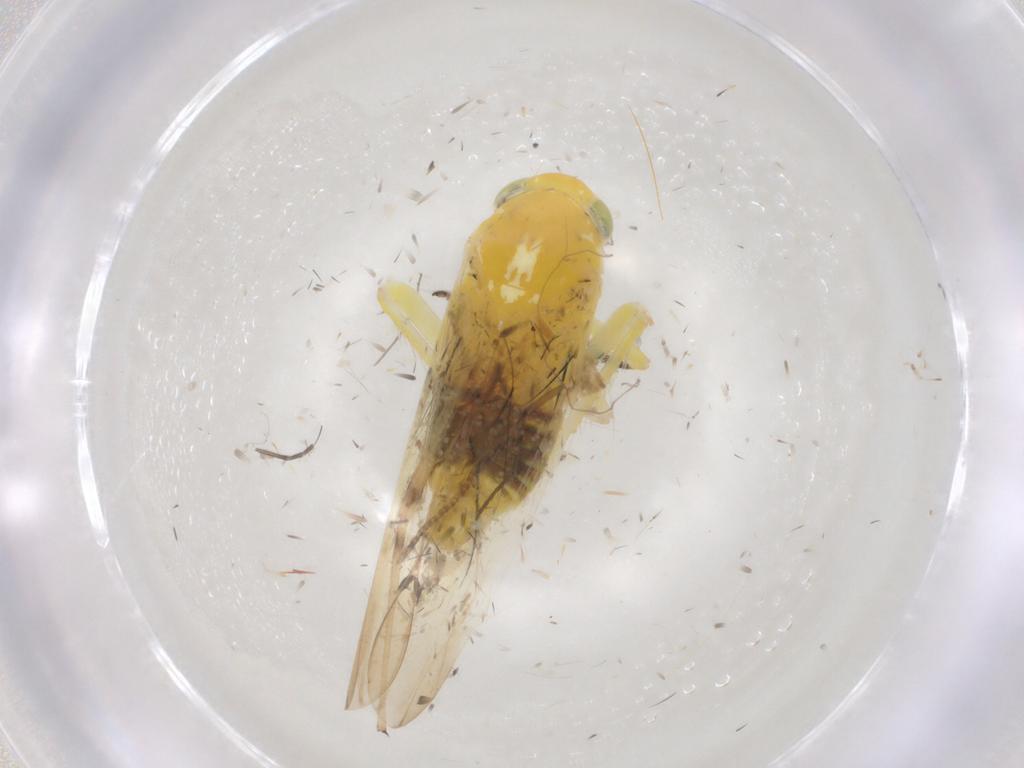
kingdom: Animalia
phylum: Arthropoda
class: Insecta
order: Hemiptera
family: Cicadellidae
